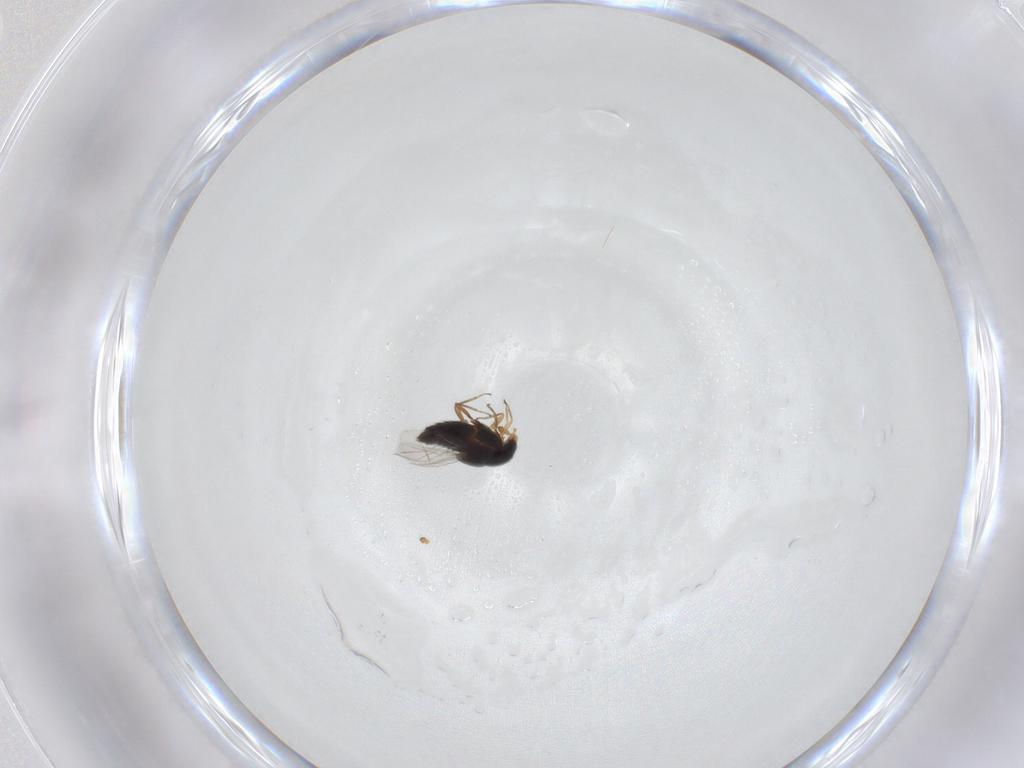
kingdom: Animalia
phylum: Arthropoda
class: Insecta
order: Coleoptera
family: Staphylinidae
